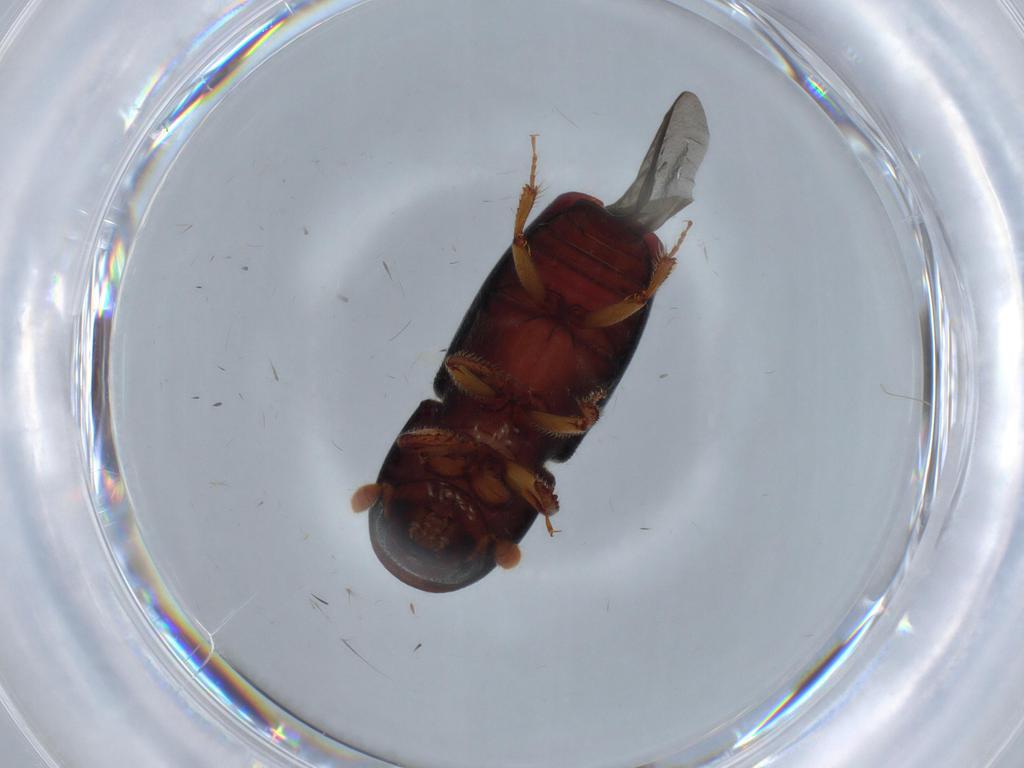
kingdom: Animalia
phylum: Arthropoda
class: Insecta
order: Coleoptera
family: Curculionidae
